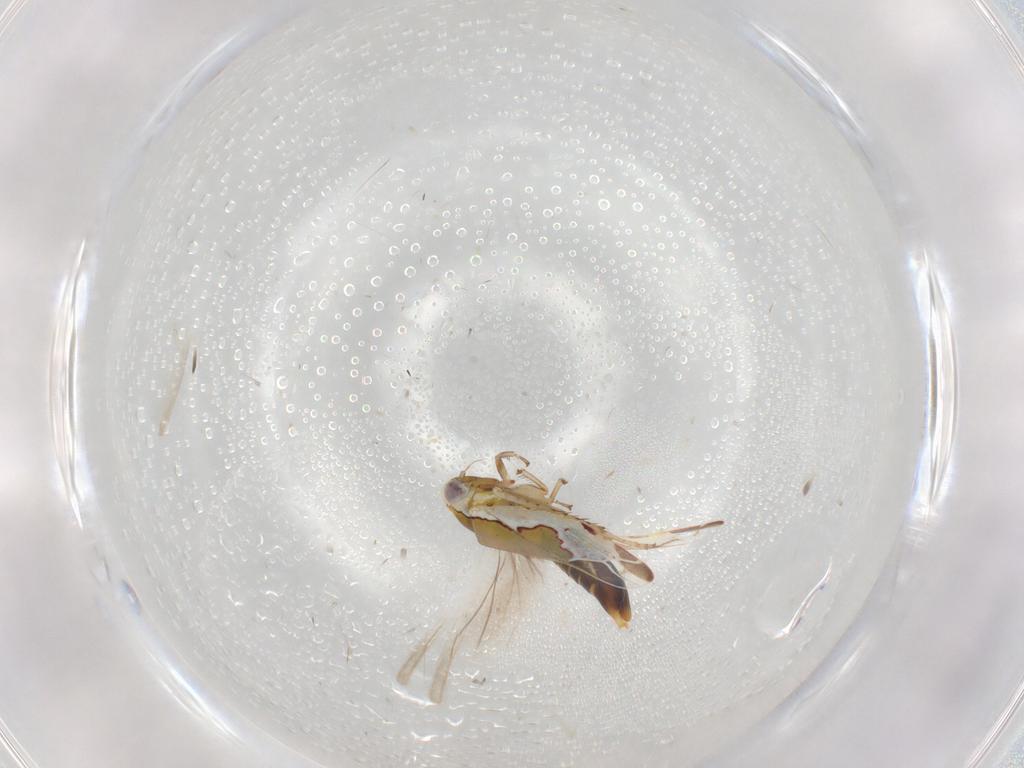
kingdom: Animalia
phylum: Arthropoda
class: Insecta
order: Hemiptera
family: Cicadellidae
